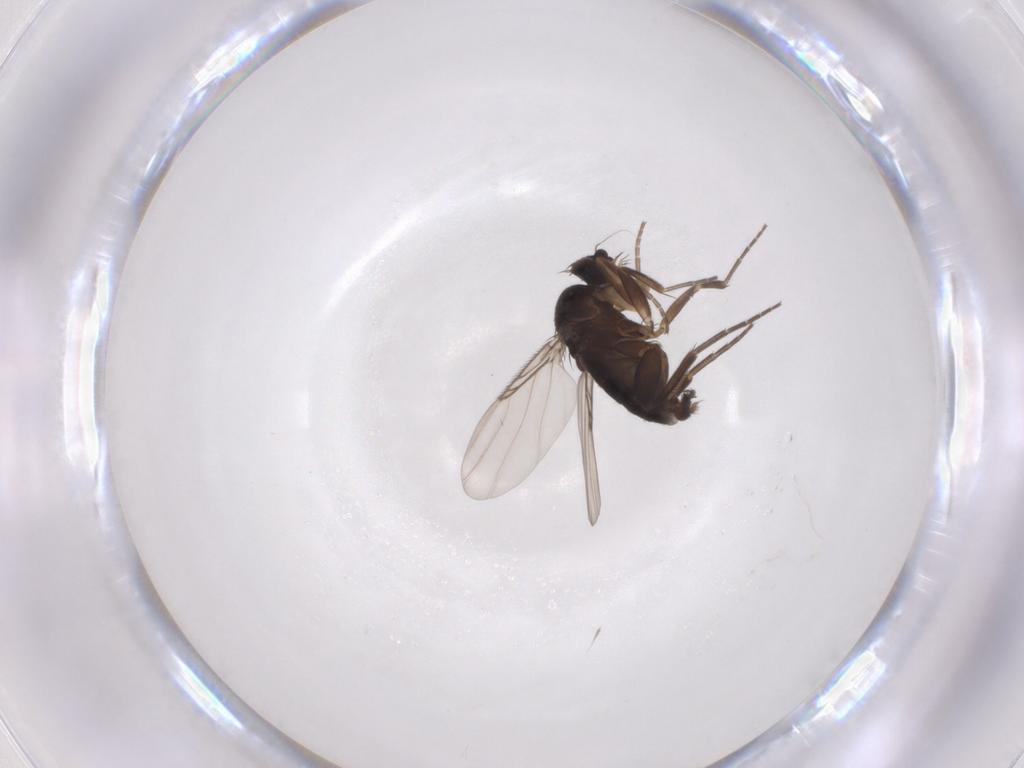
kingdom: Animalia
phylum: Arthropoda
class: Insecta
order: Diptera
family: Phoridae
